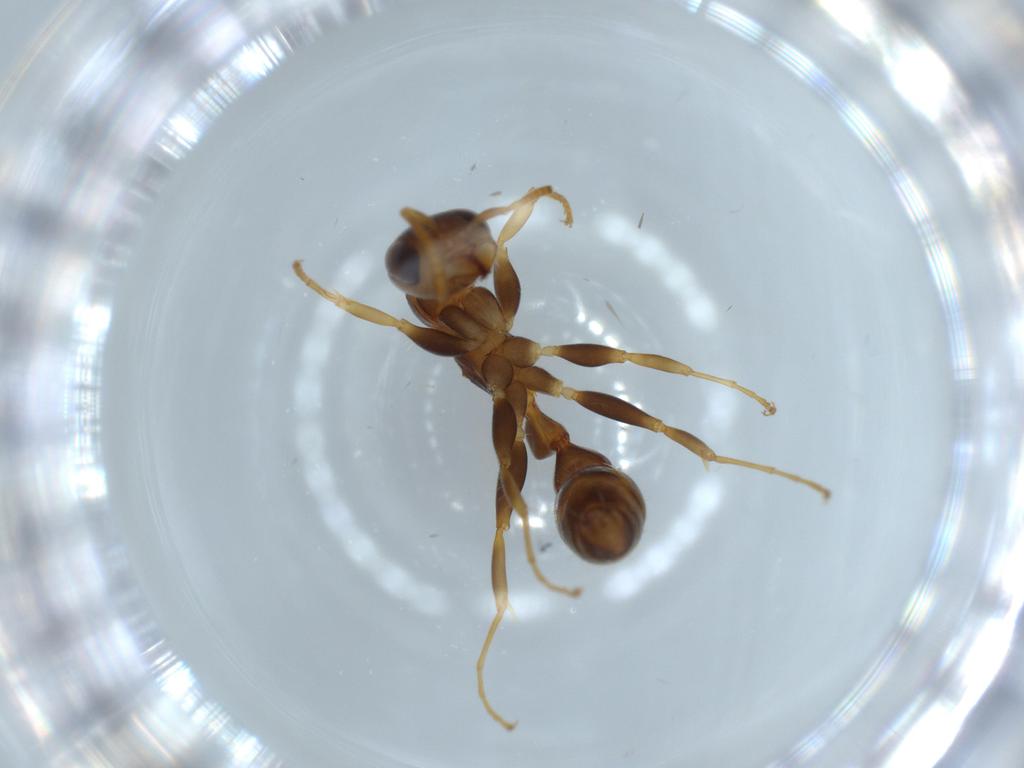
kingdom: Animalia
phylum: Arthropoda
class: Insecta
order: Hymenoptera
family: Formicidae
